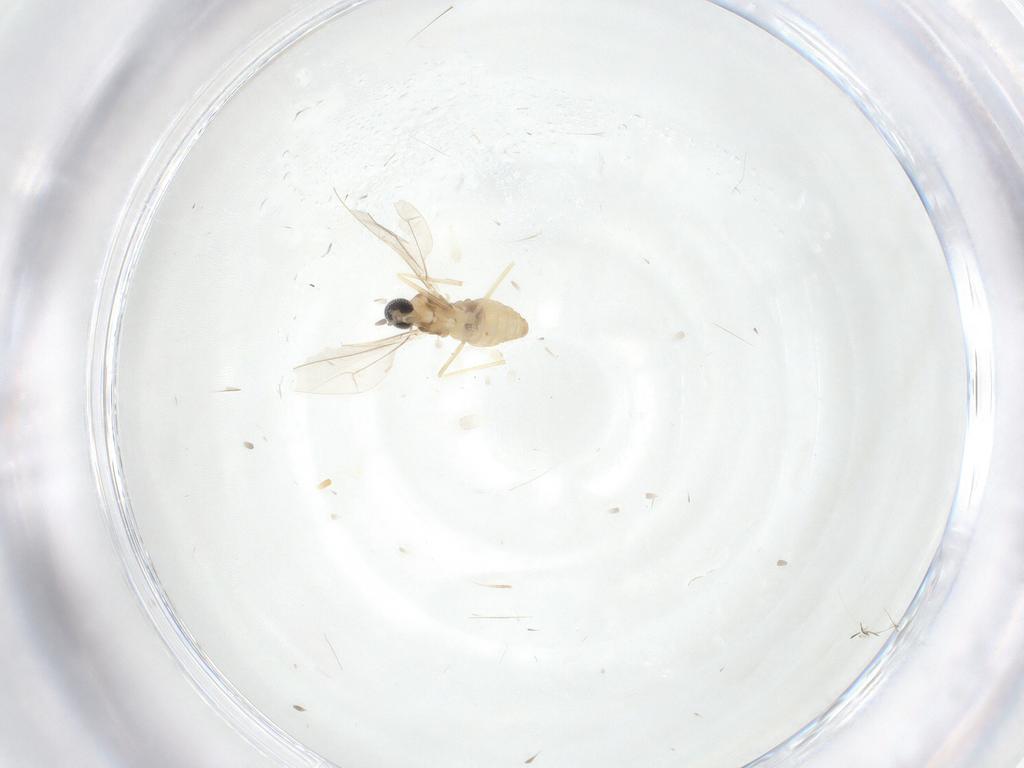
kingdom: Animalia
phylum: Arthropoda
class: Insecta
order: Diptera
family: Cecidomyiidae
